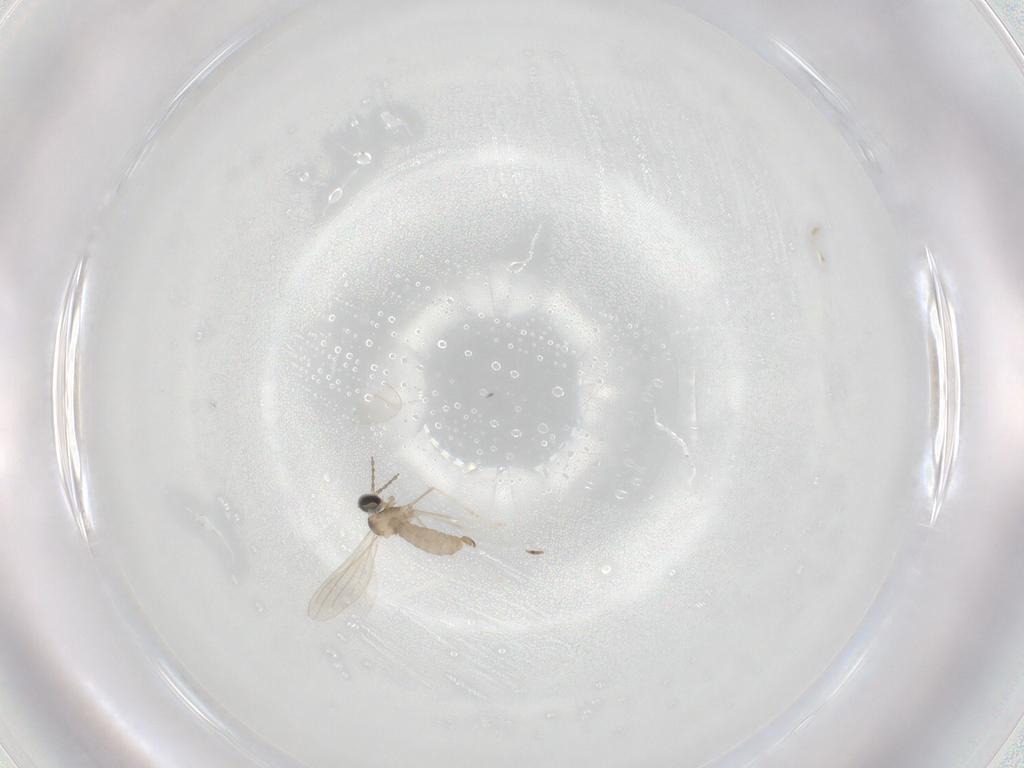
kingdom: Animalia
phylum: Arthropoda
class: Insecta
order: Diptera
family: Cecidomyiidae
